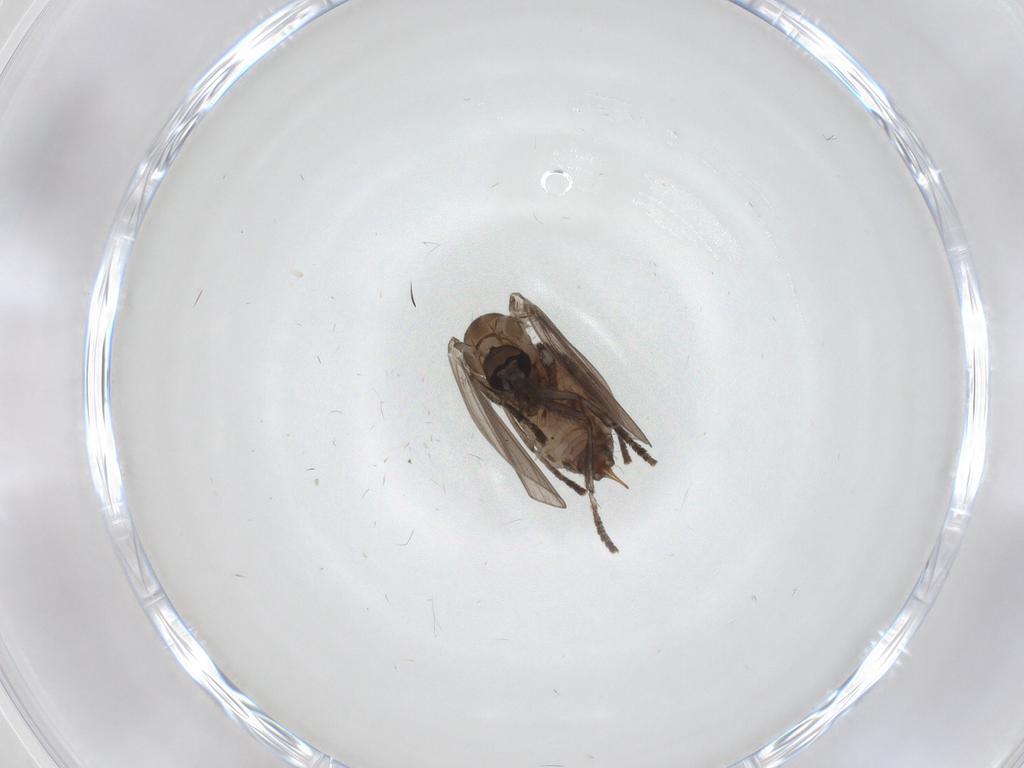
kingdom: Animalia
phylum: Arthropoda
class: Insecta
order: Diptera
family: Psychodidae
